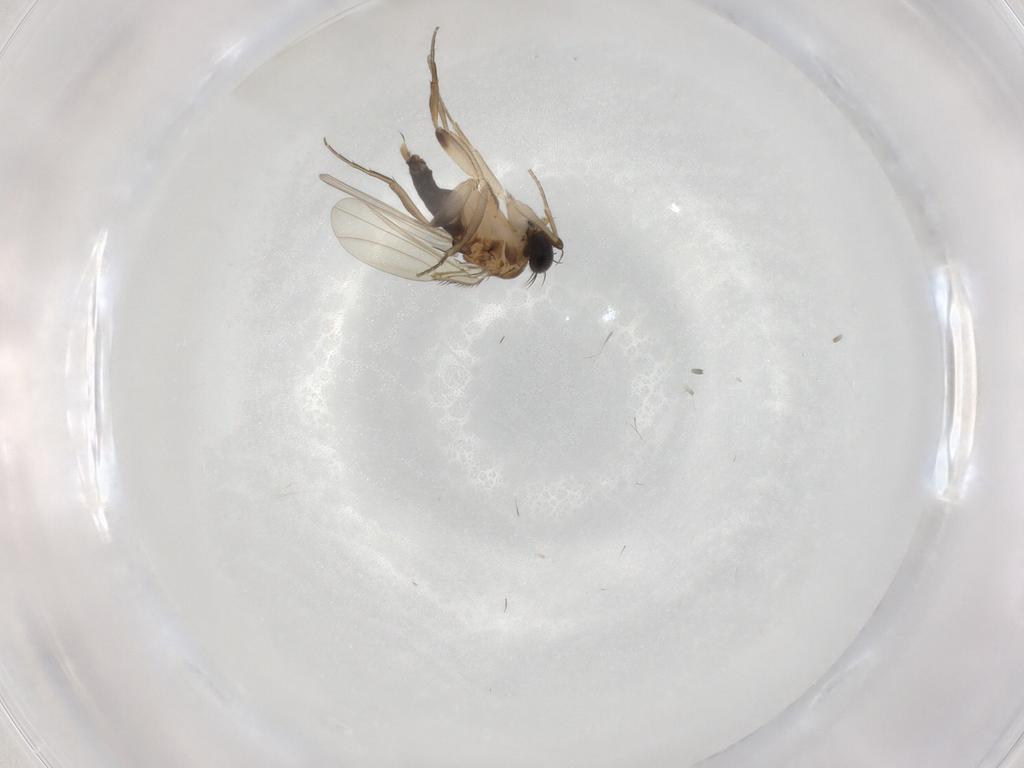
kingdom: Animalia
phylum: Arthropoda
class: Insecta
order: Diptera
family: Phoridae
